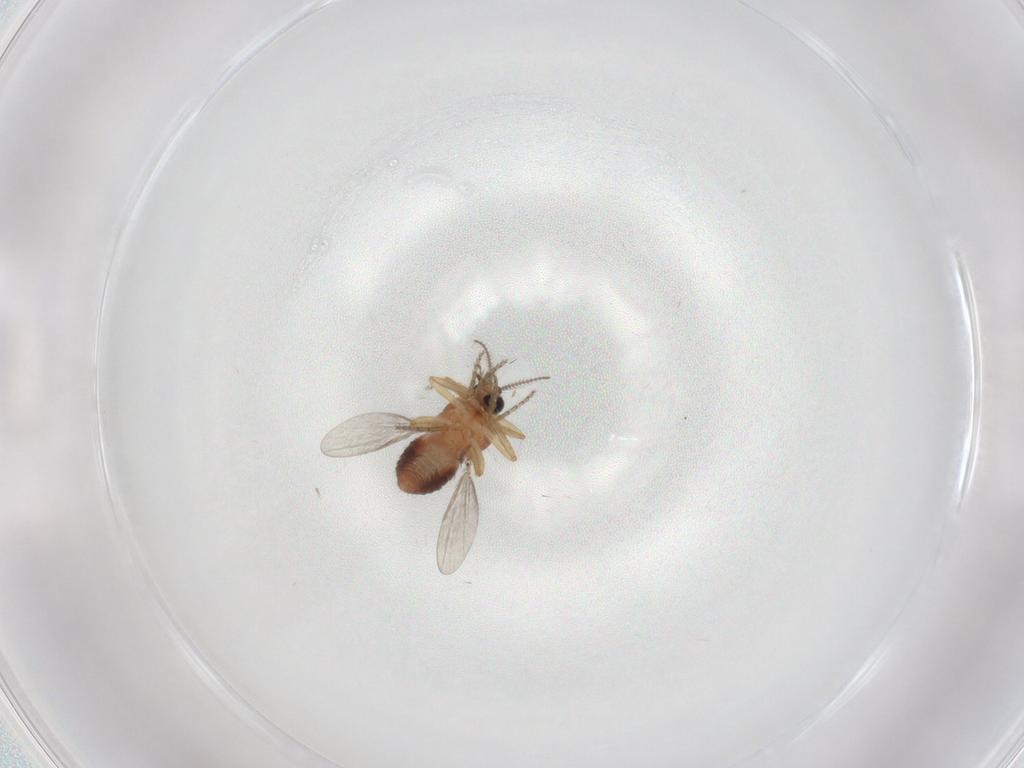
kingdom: Animalia
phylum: Arthropoda
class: Insecta
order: Diptera
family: Ceratopogonidae
